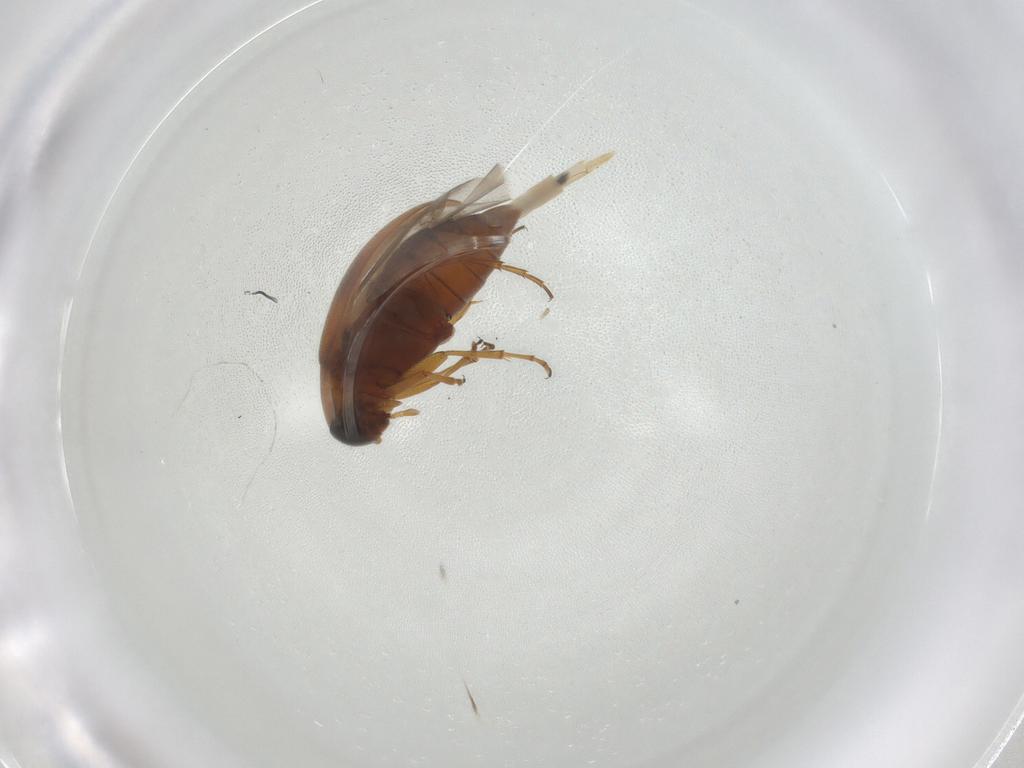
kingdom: Animalia
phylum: Arthropoda
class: Insecta
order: Coleoptera
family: Scraptiidae
